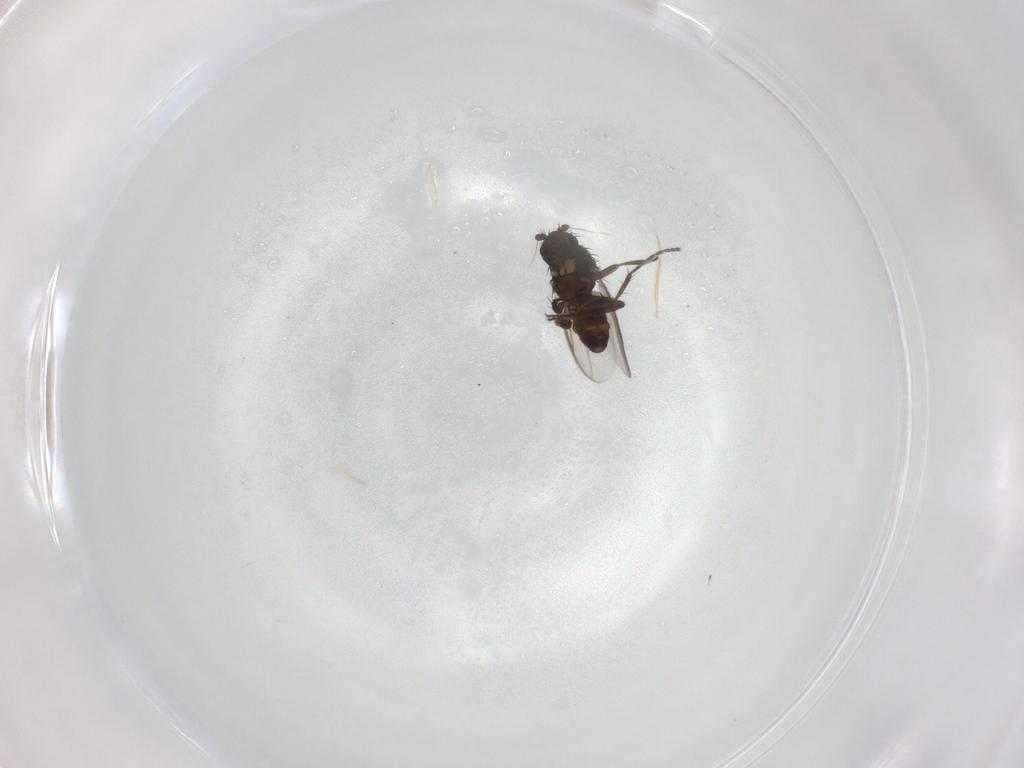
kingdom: Animalia
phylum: Arthropoda
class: Insecta
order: Diptera
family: Sphaeroceridae
